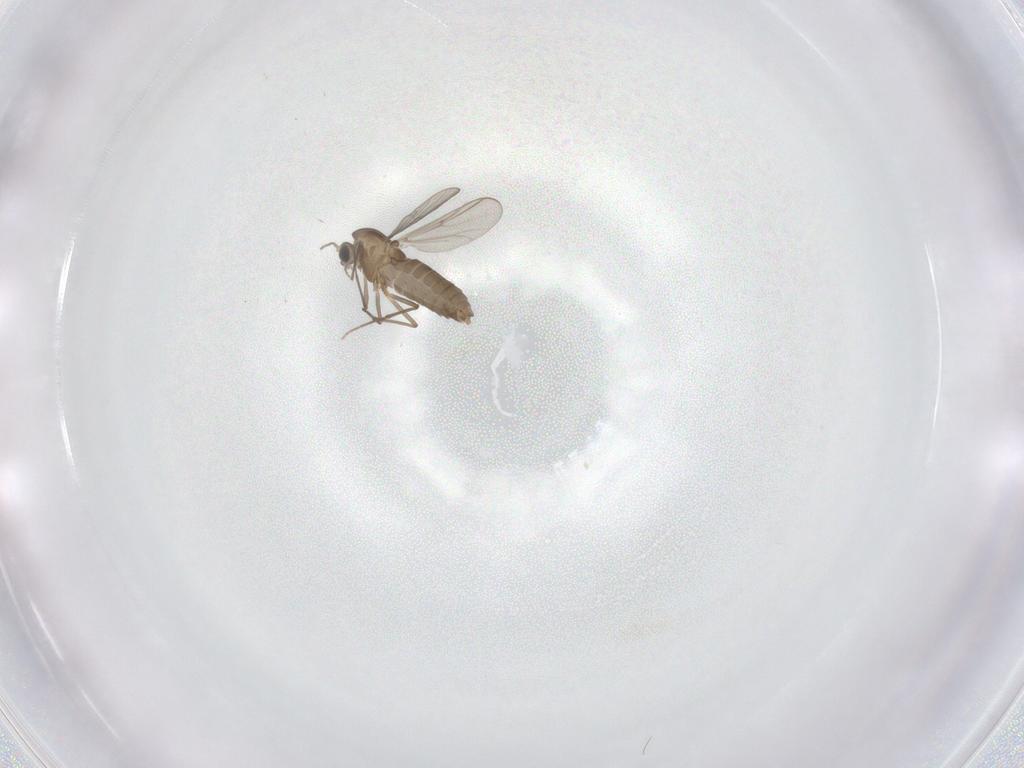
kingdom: Animalia
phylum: Arthropoda
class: Insecta
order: Diptera
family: Chironomidae
